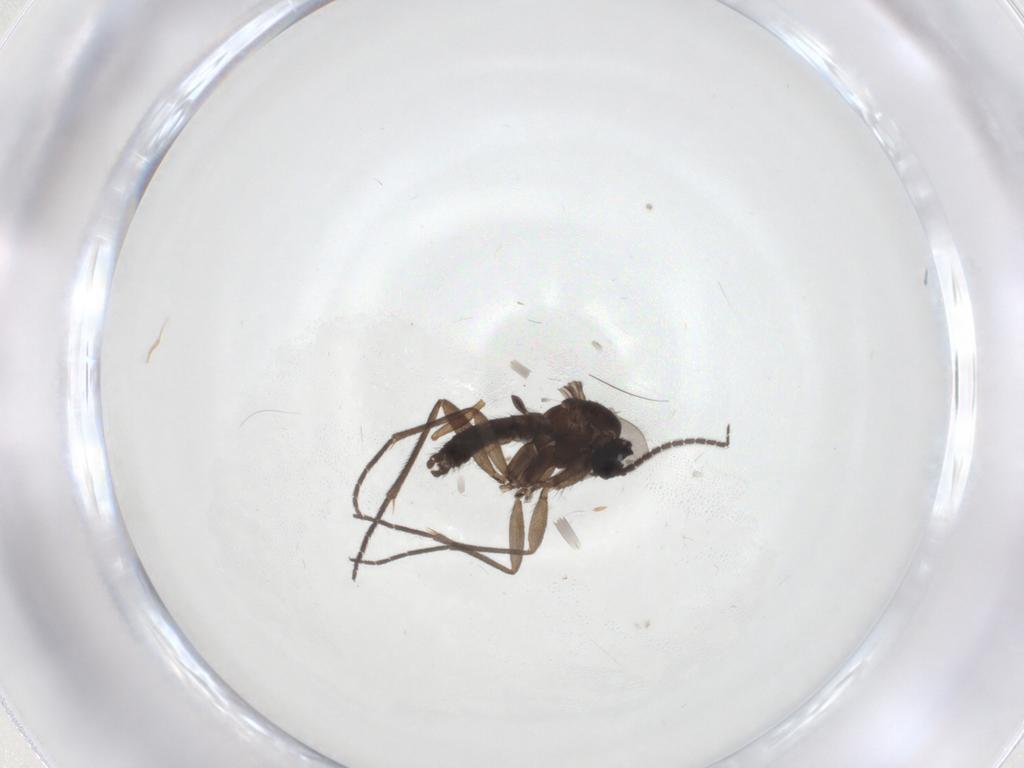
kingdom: Animalia
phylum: Arthropoda
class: Insecta
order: Diptera
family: Sciaridae
